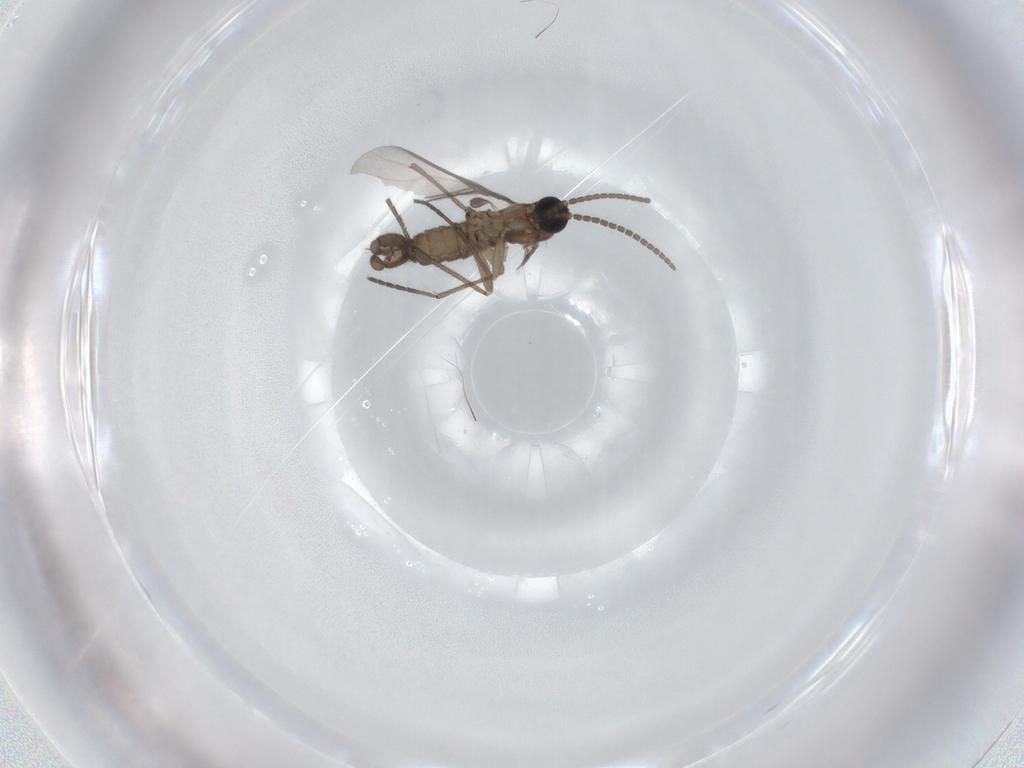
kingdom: Animalia
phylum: Arthropoda
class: Insecta
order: Diptera
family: Sciaridae
